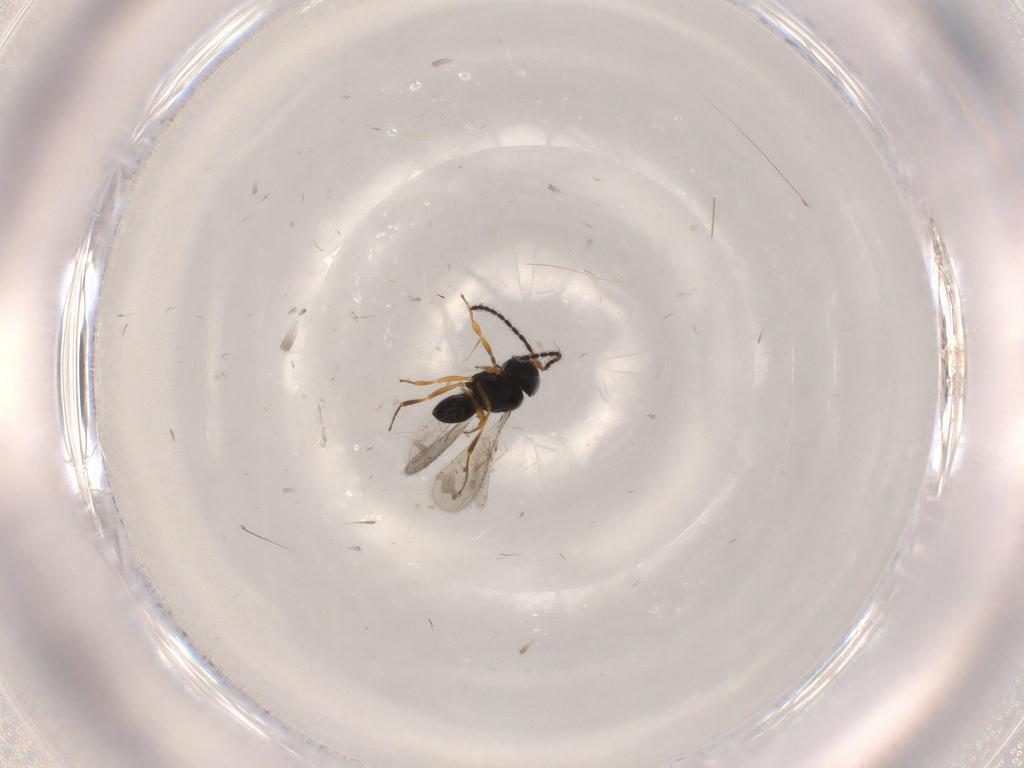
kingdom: Animalia
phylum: Arthropoda
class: Insecta
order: Hymenoptera
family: Scelionidae
